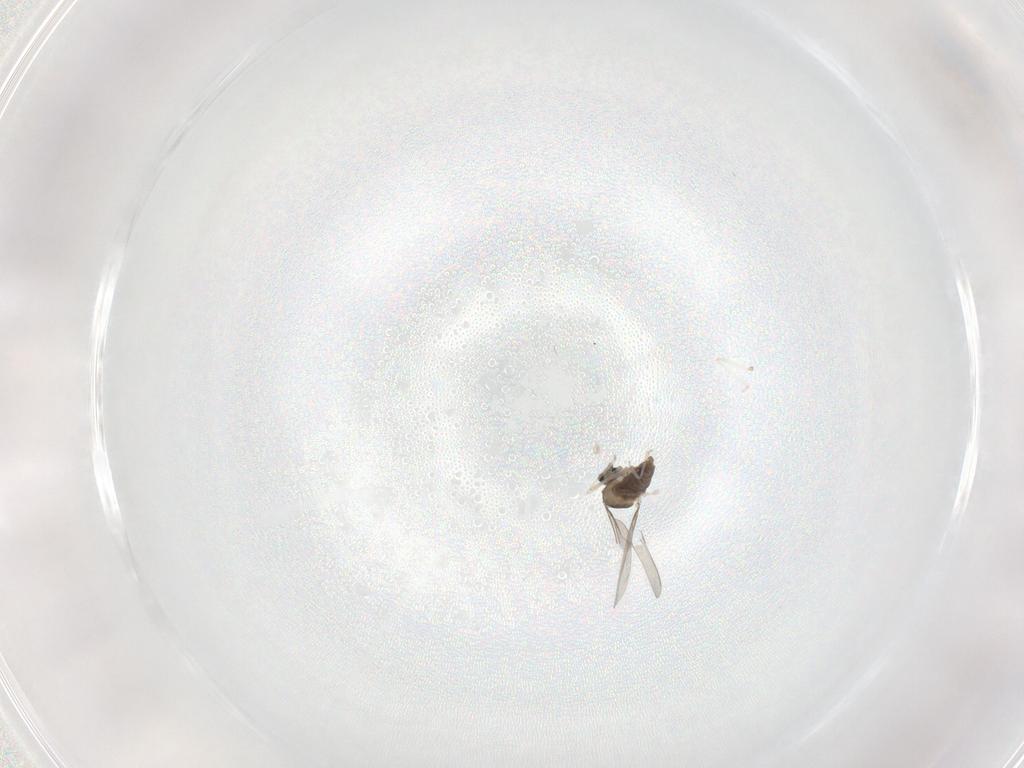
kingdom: Animalia
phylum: Arthropoda
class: Insecta
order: Diptera
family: Cecidomyiidae
